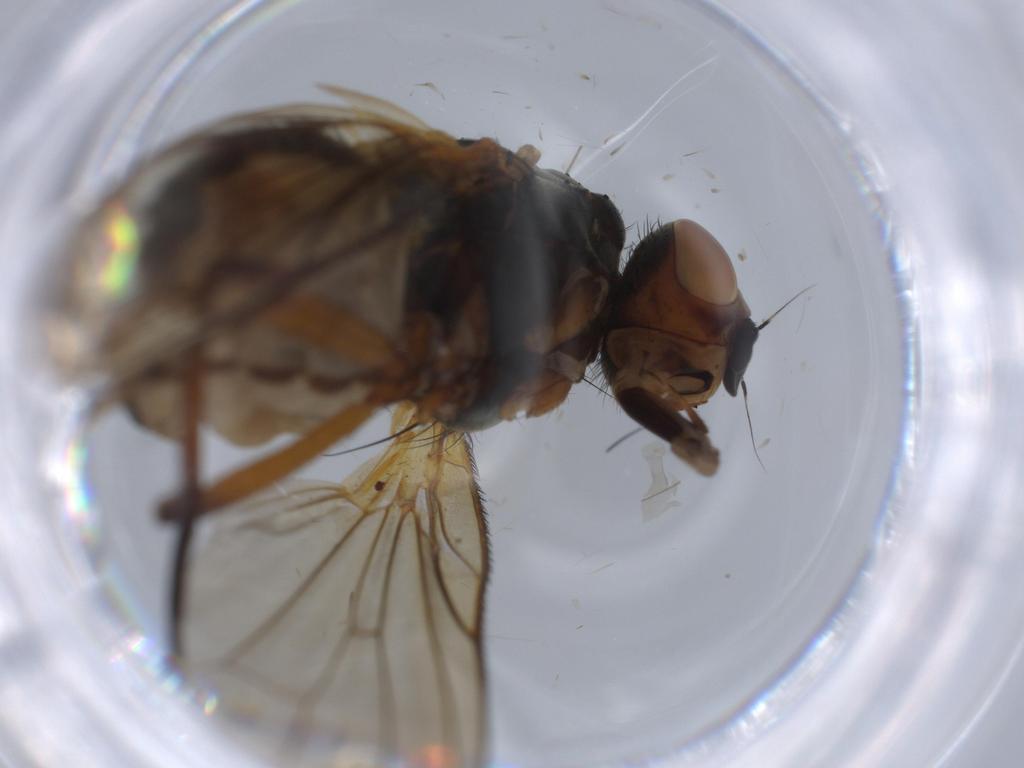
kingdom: Animalia
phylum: Arthropoda
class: Insecta
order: Diptera
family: Anthomyiidae
